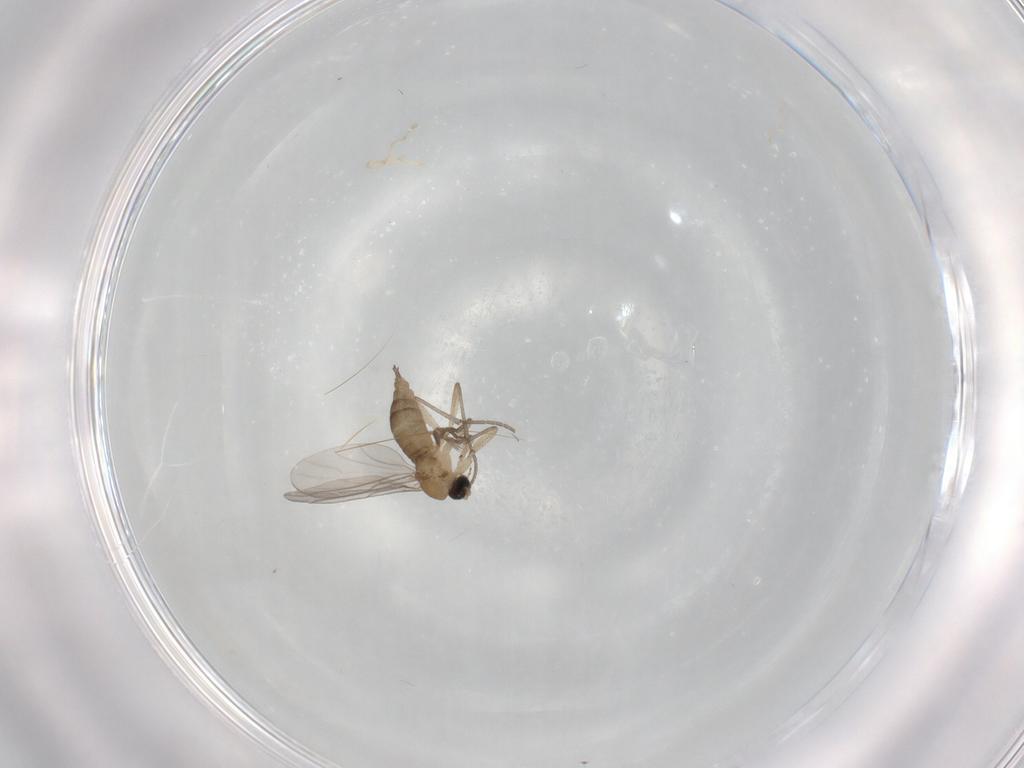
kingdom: Animalia
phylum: Arthropoda
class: Insecta
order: Diptera
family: Sciaridae
